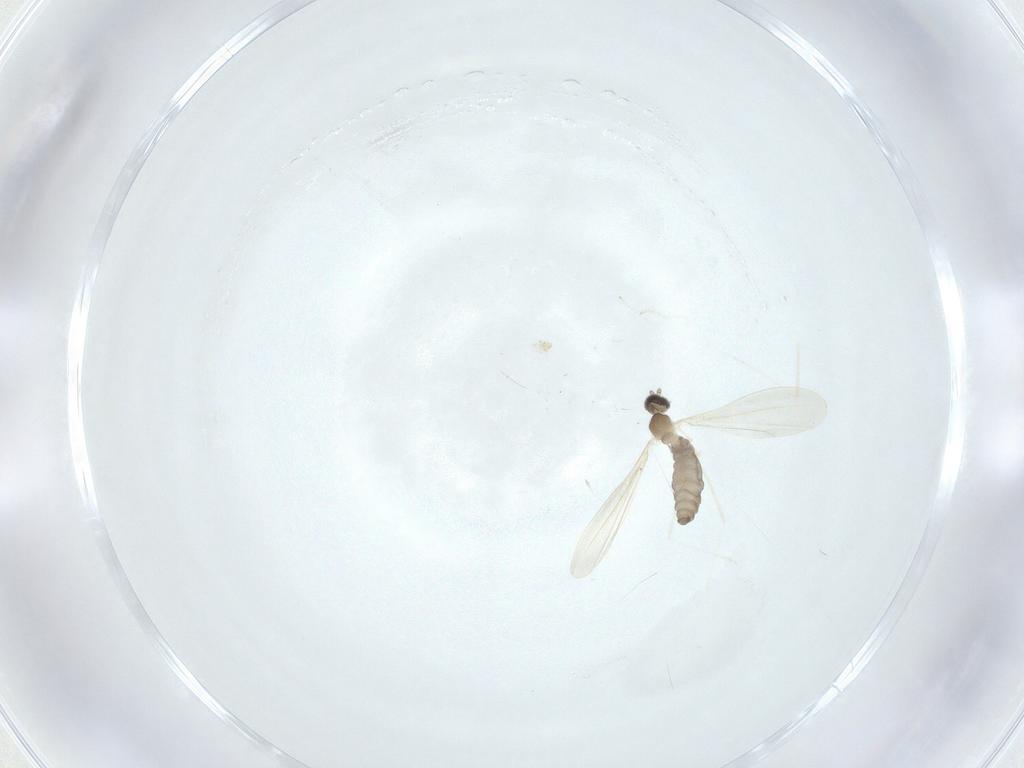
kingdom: Animalia
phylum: Arthropoda
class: Insecta
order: Diptera
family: Cecidomyiidae
